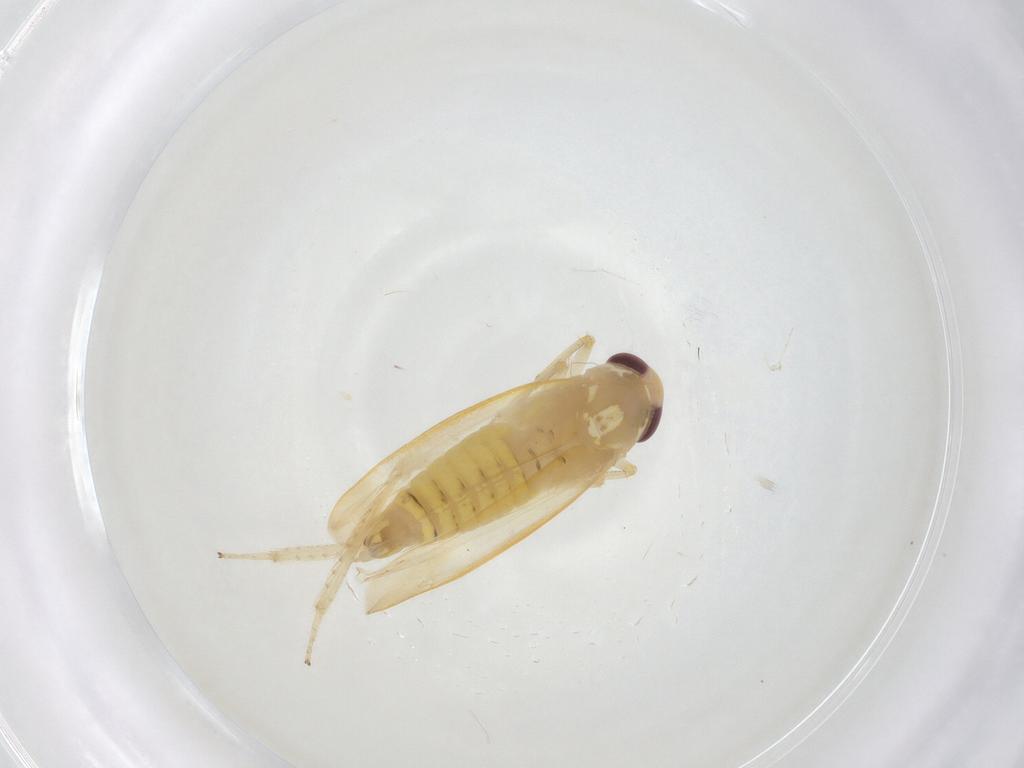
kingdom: Animalia
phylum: Arthropoda
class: Insecta
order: Hemiptera
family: Cicadellidae
